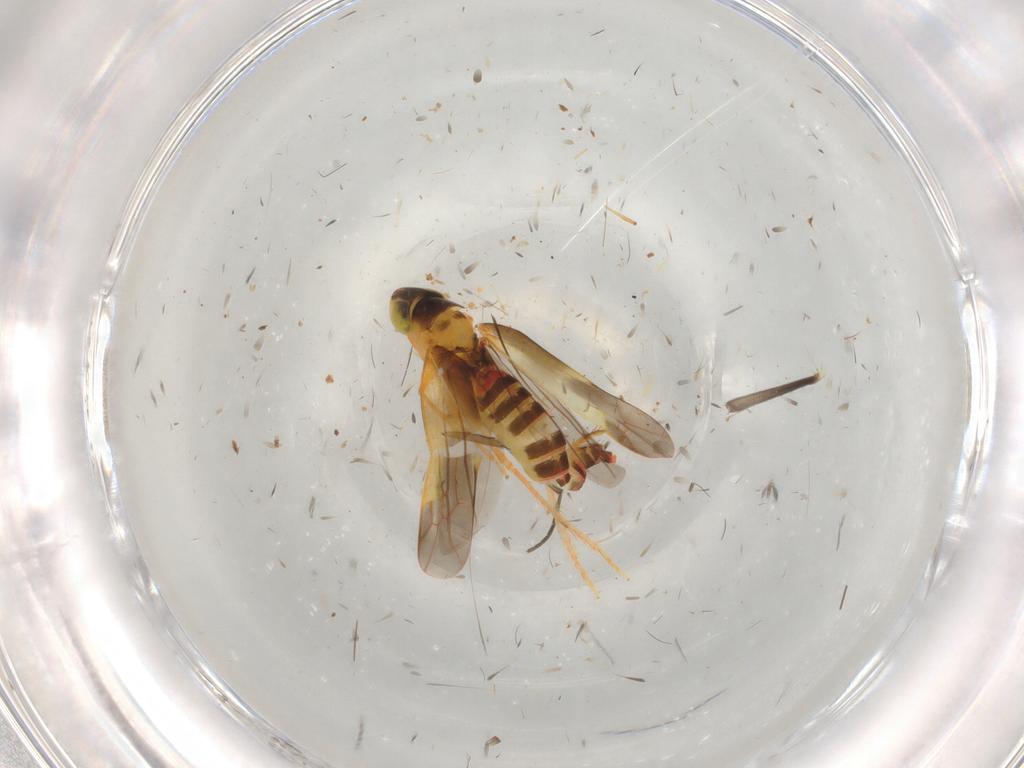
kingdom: Animalia
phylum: Arthropoda
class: Insecta
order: Hemiptera
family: Cicadellidae
